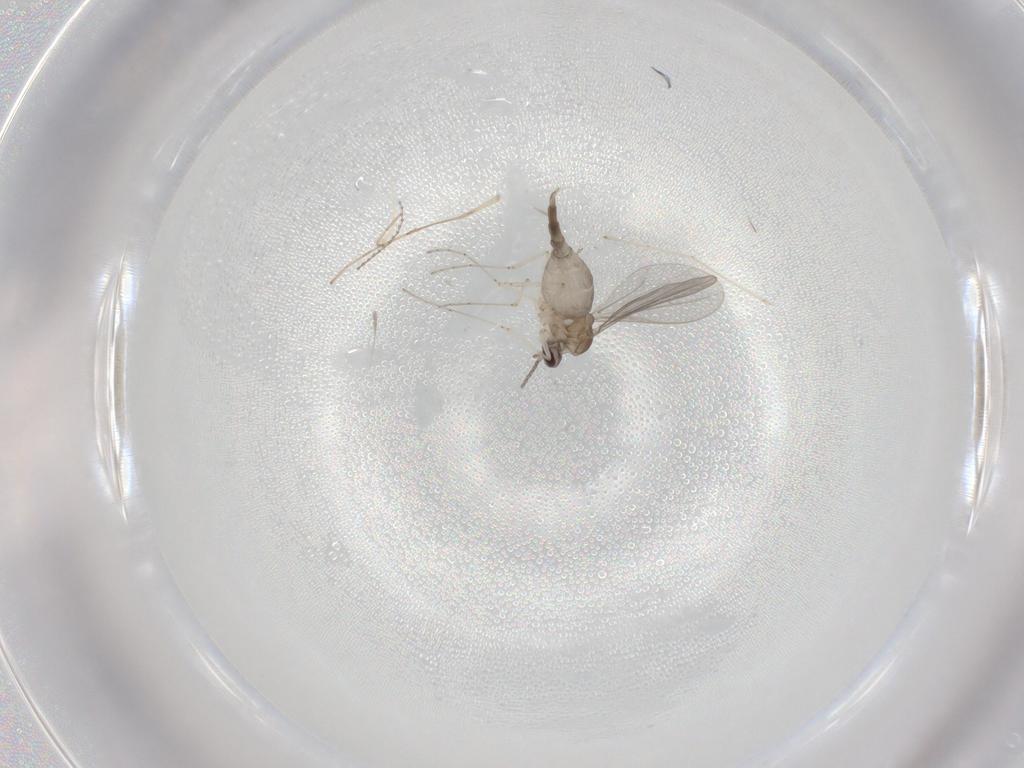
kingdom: Animalia
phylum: Arthropoda
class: Insecta
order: Diptera
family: Cecidomyiidae
